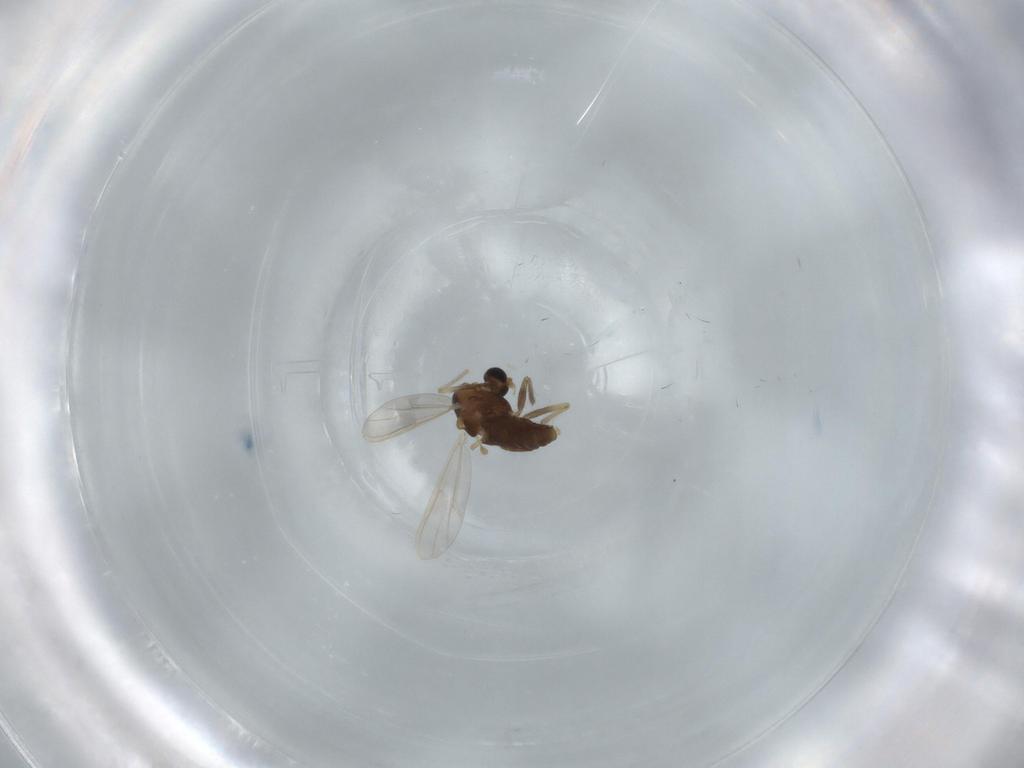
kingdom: Animalia
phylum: Arthropoda
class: Insecta
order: Diptera
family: Chironomidae
